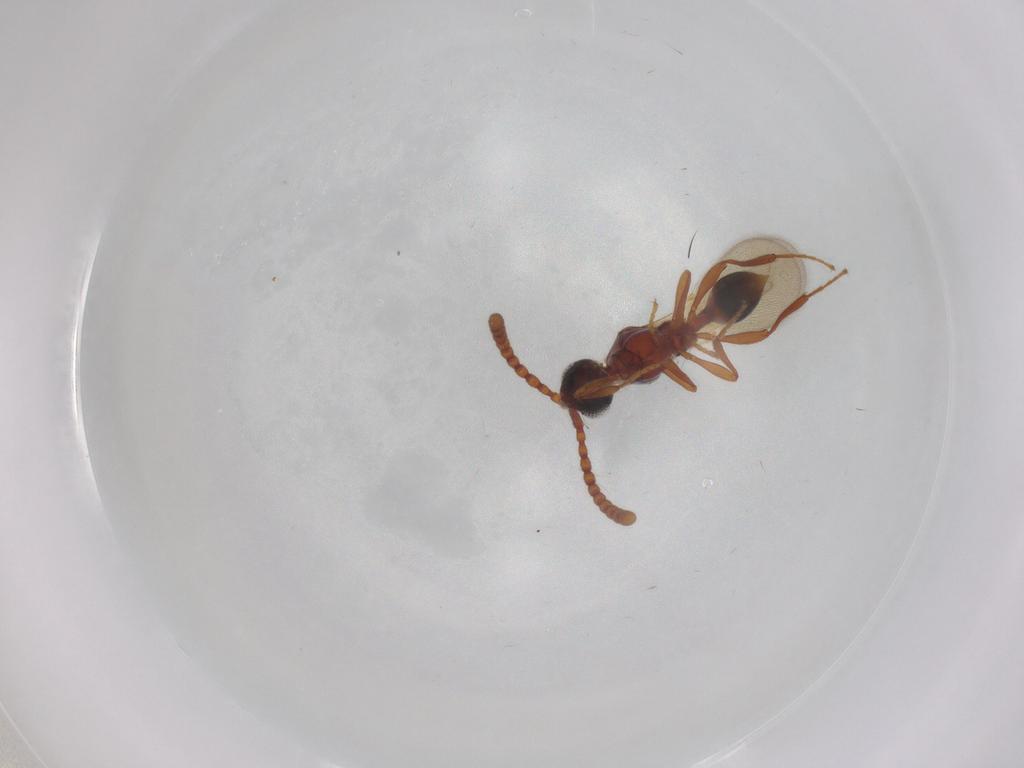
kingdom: Animalia
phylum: Arthropoda
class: Insecta
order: Hymenoptera
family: Diapriidae
